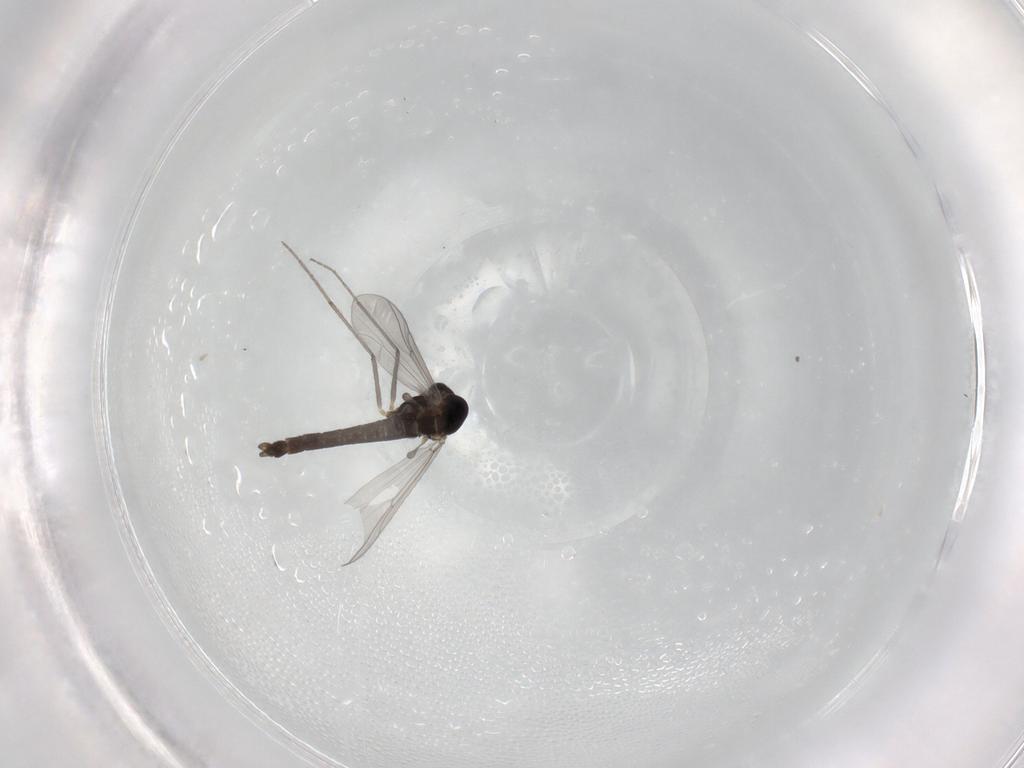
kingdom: Animalia
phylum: Arthropoda
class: Insecta
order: Diptera
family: Chironomidae
